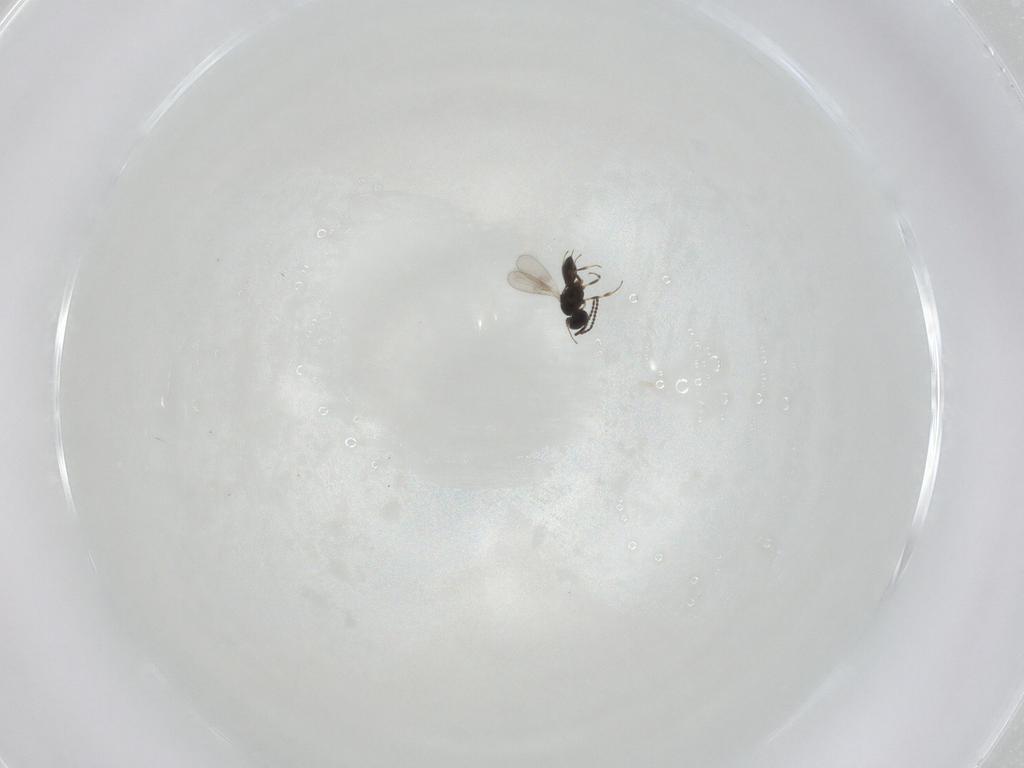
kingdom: Animalia
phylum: Arthropoda
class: Insecta
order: Hymenoptera
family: Scelionidae
